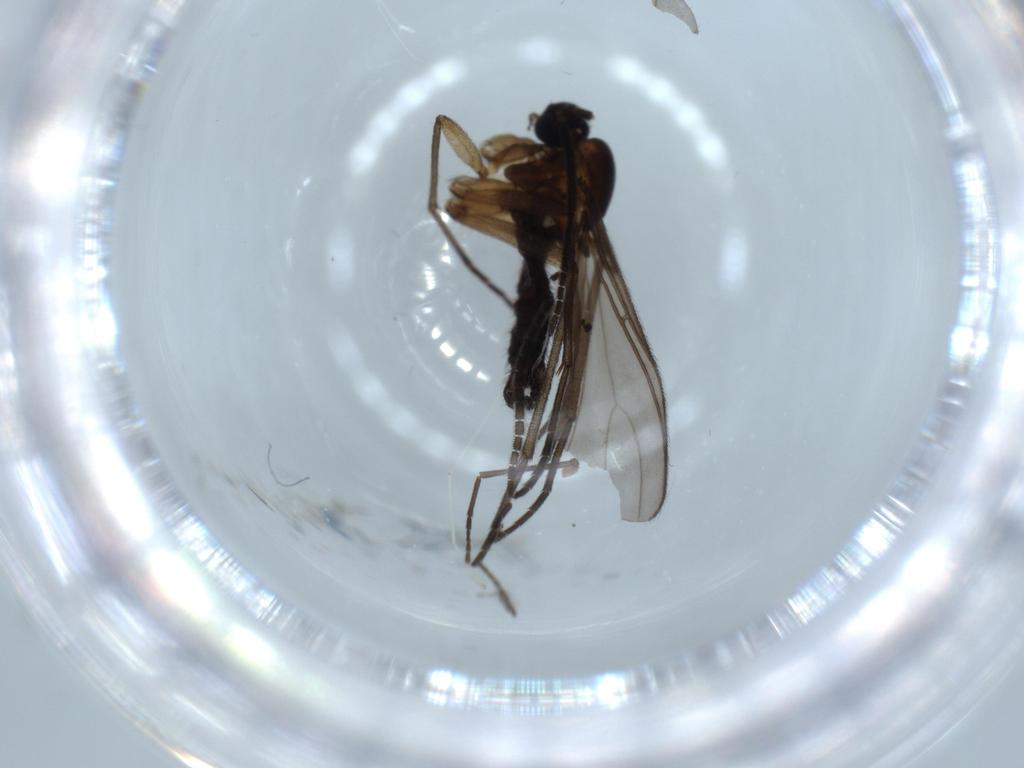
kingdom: Animalia
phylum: Arthropoda
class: Insecta
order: Diptera
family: Sciaridae
